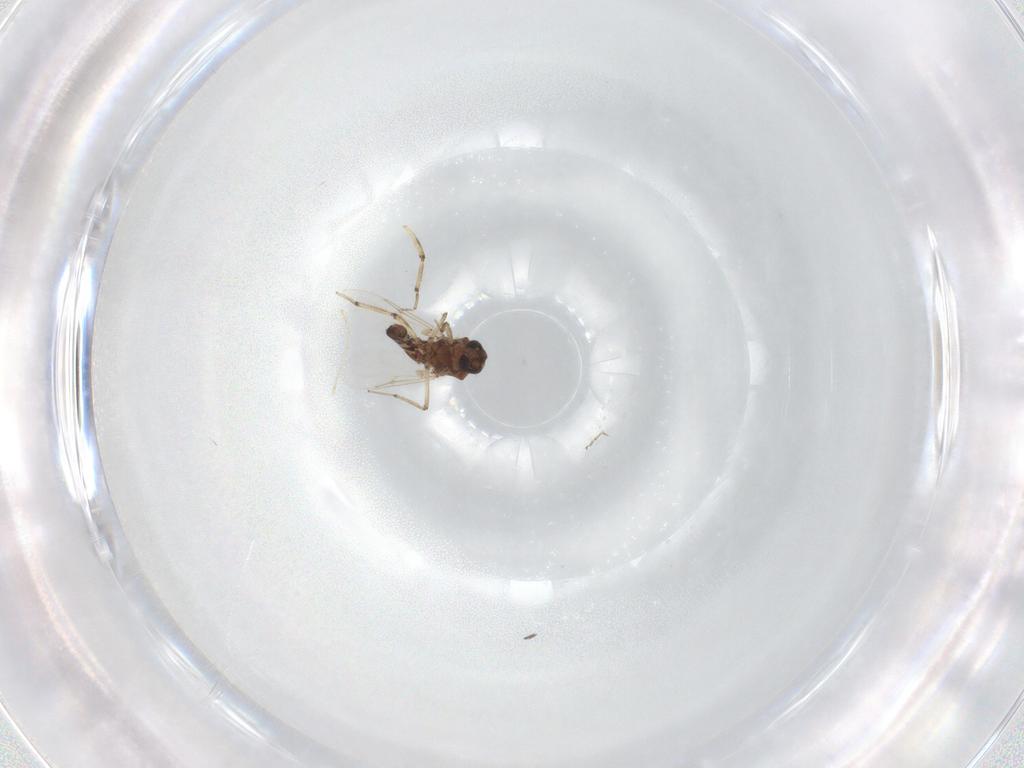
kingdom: Animalia
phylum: Arthropoda
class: Insecta
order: Diptera
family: Ceratopogonidae
